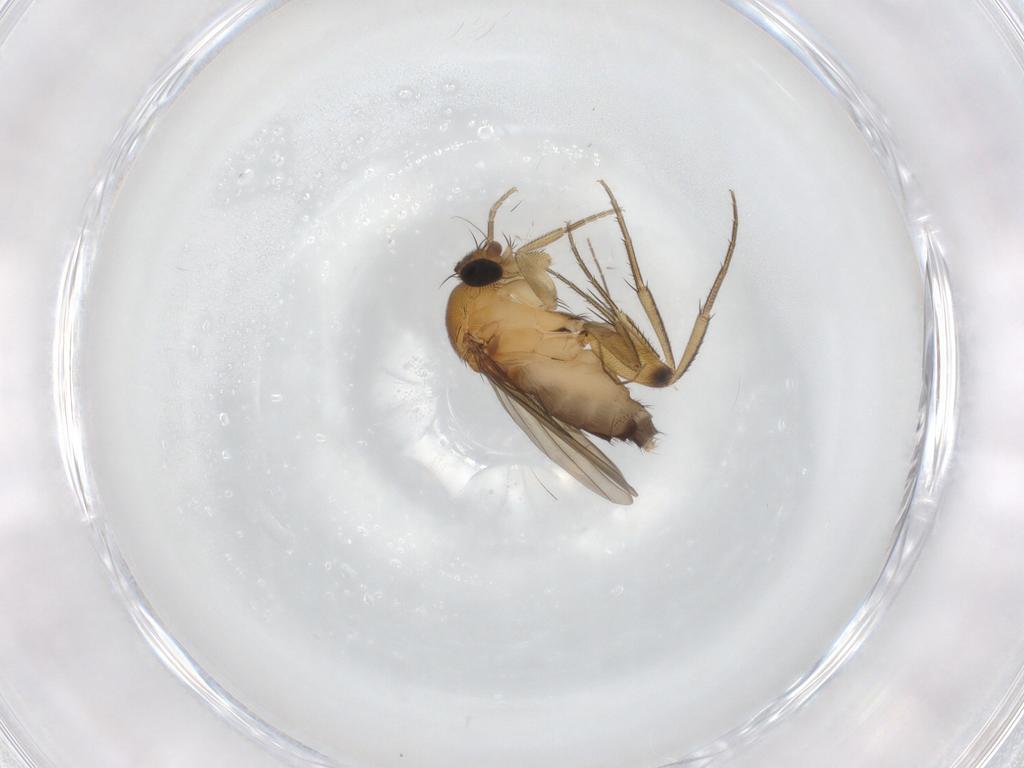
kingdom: Animalia
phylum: Arthropoda
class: Insecta
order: Diptera
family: Phoridae
